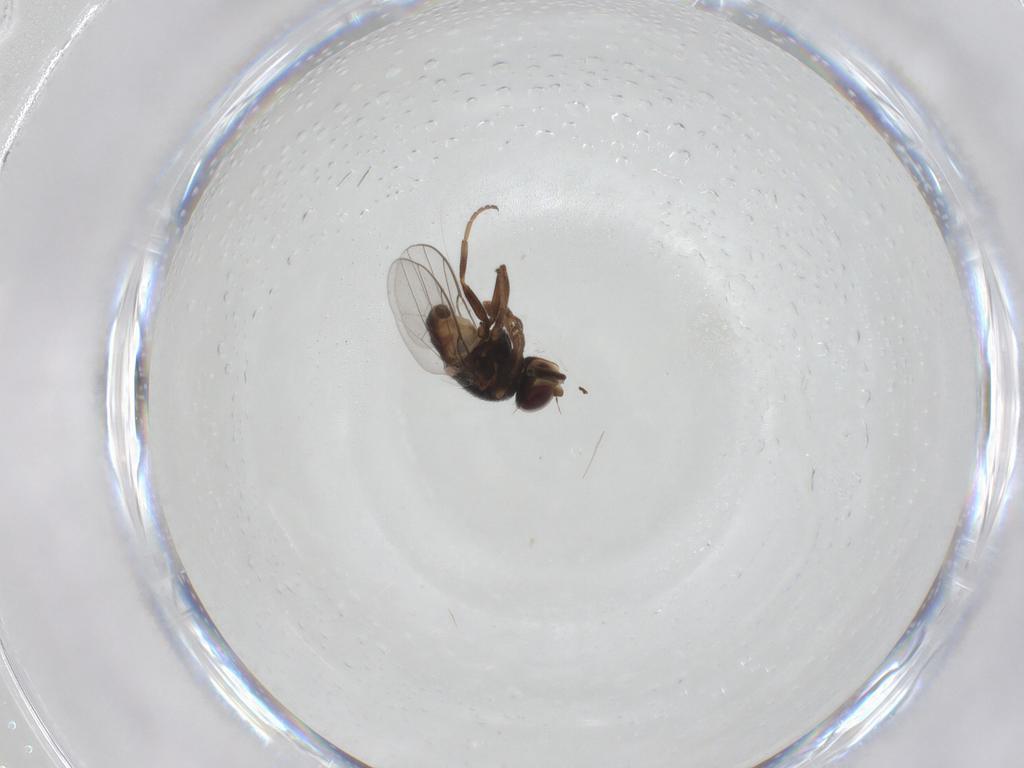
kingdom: Animalia
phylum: Arthropoda
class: Insecta
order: Diptera
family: Chloropidae
